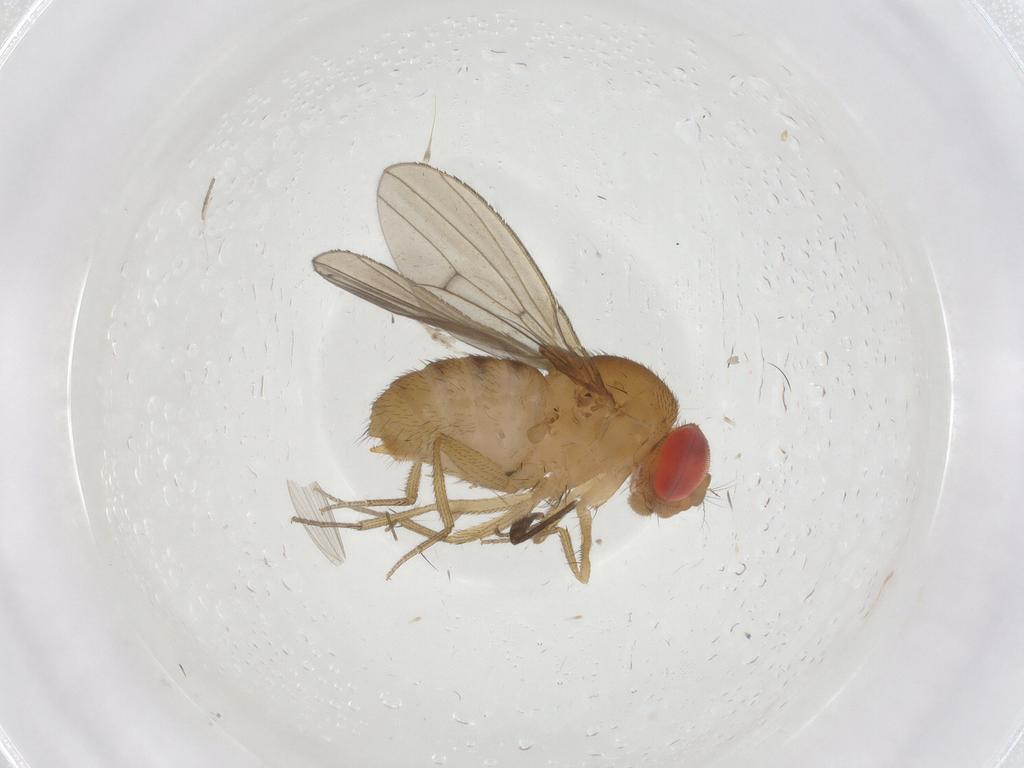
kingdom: Animalia
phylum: Arthropoda
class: Insecta
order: Diptera
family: Drosophilidae
